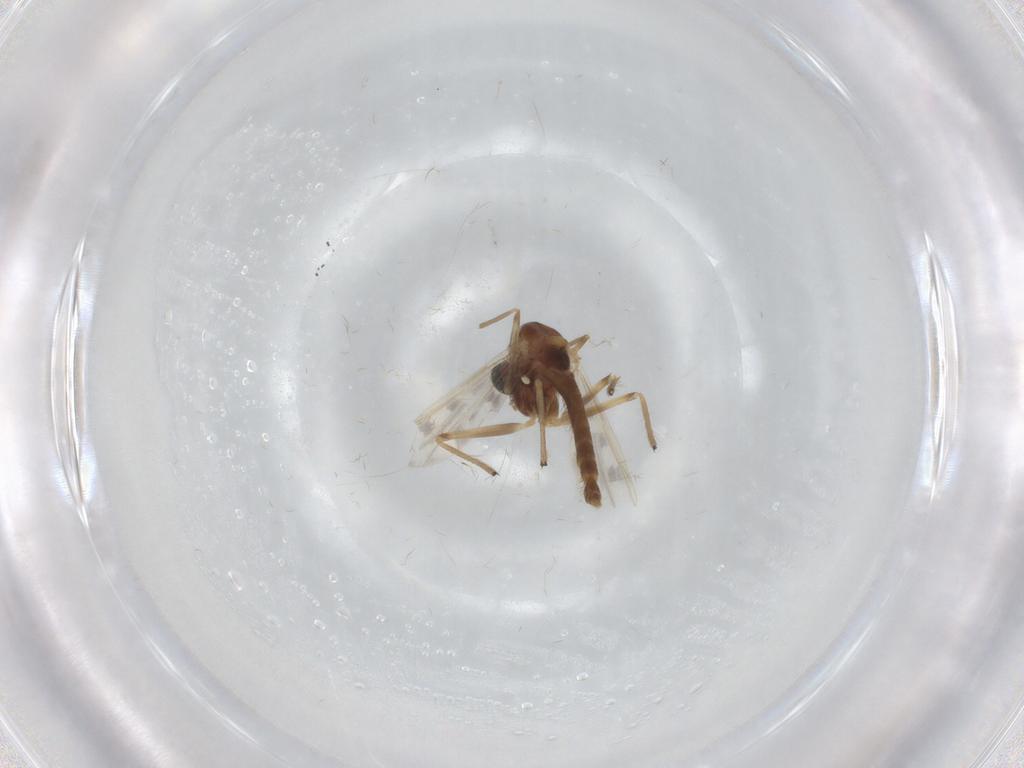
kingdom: Animalia
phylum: Arthropoda
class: Insecta
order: Diptera
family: Chironomidae
